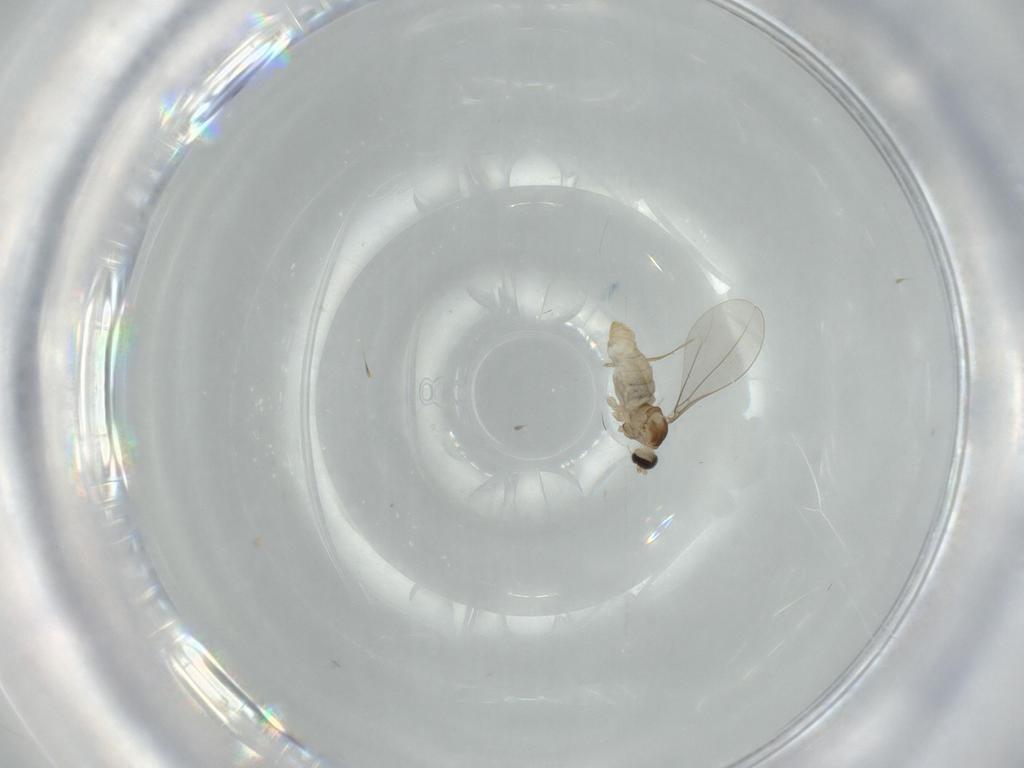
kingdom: Animalia
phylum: Arthropoda
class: Insecta
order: Diptera
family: Cecidomyiidae
